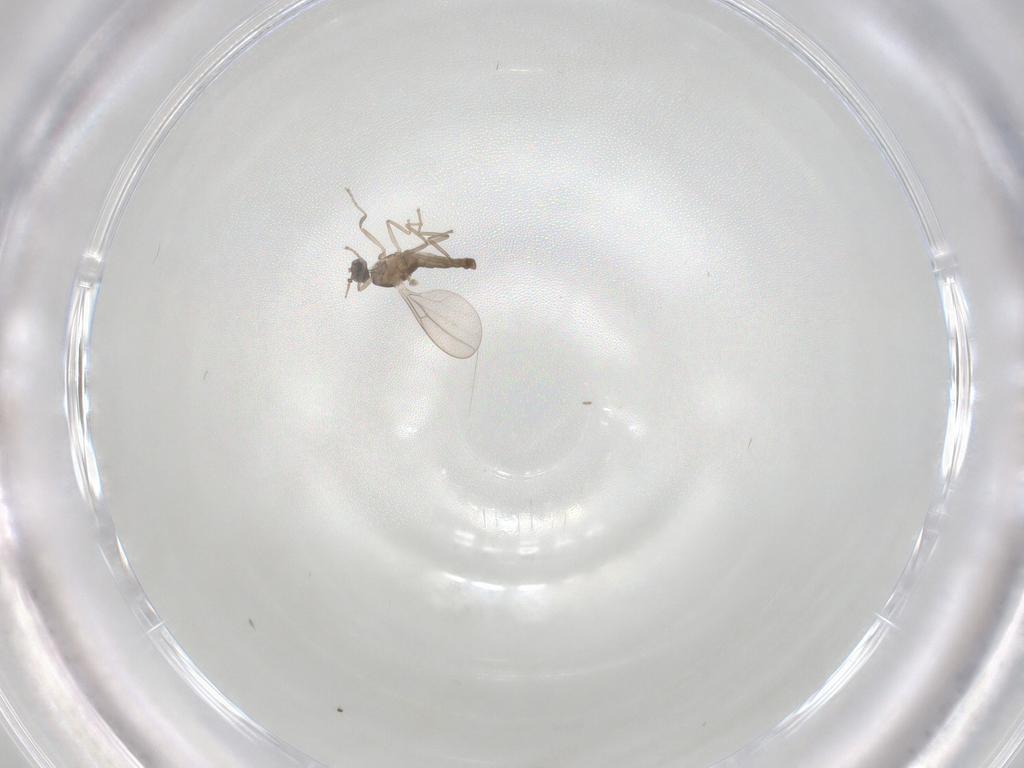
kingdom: Animalia
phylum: Arthropoda
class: Insecta
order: Diptera
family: Cecidomyiidae
